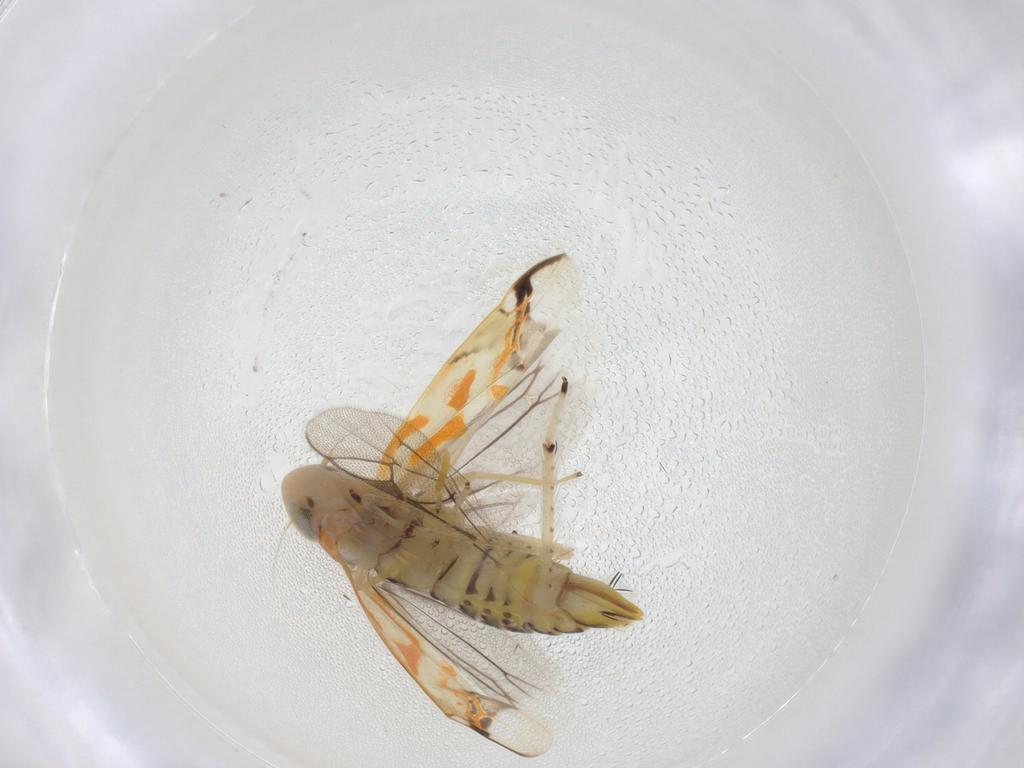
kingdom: Animalia
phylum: Arthropoda
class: Insecta
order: Hemiptera
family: Cicadellidae
